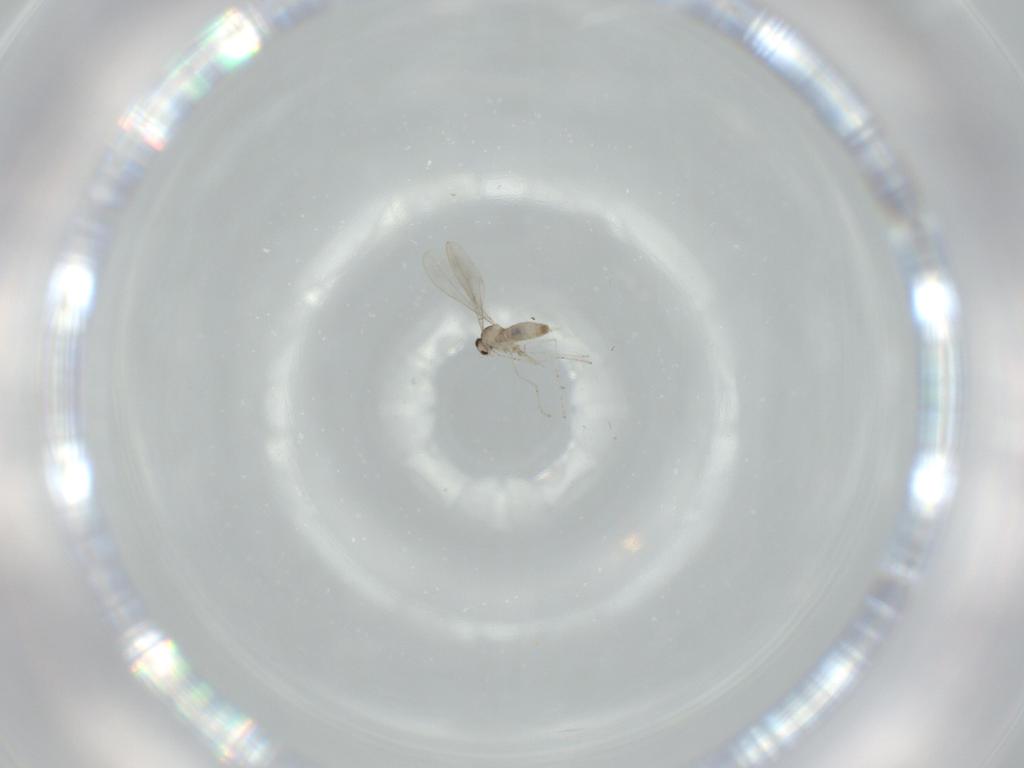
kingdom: Animalia
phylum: Arthropoda
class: Insecta
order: Diptera
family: Cecidomyiidae
